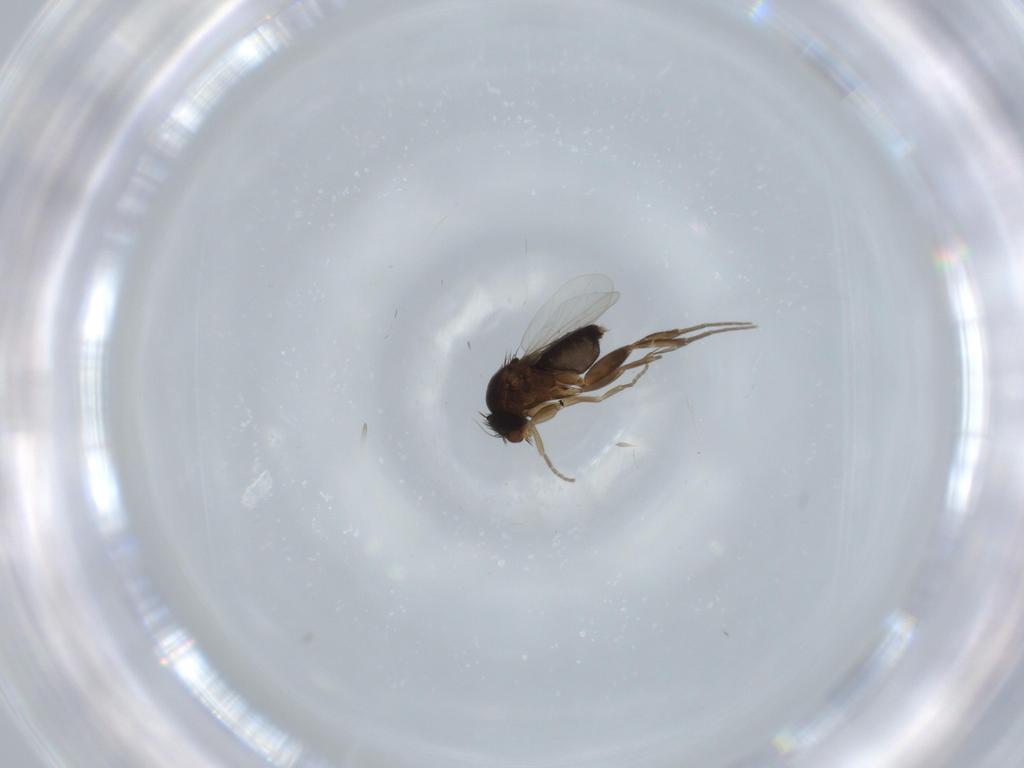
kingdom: Animalia
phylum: Arthropoda
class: Insecta
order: Diptera
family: Phoridae
